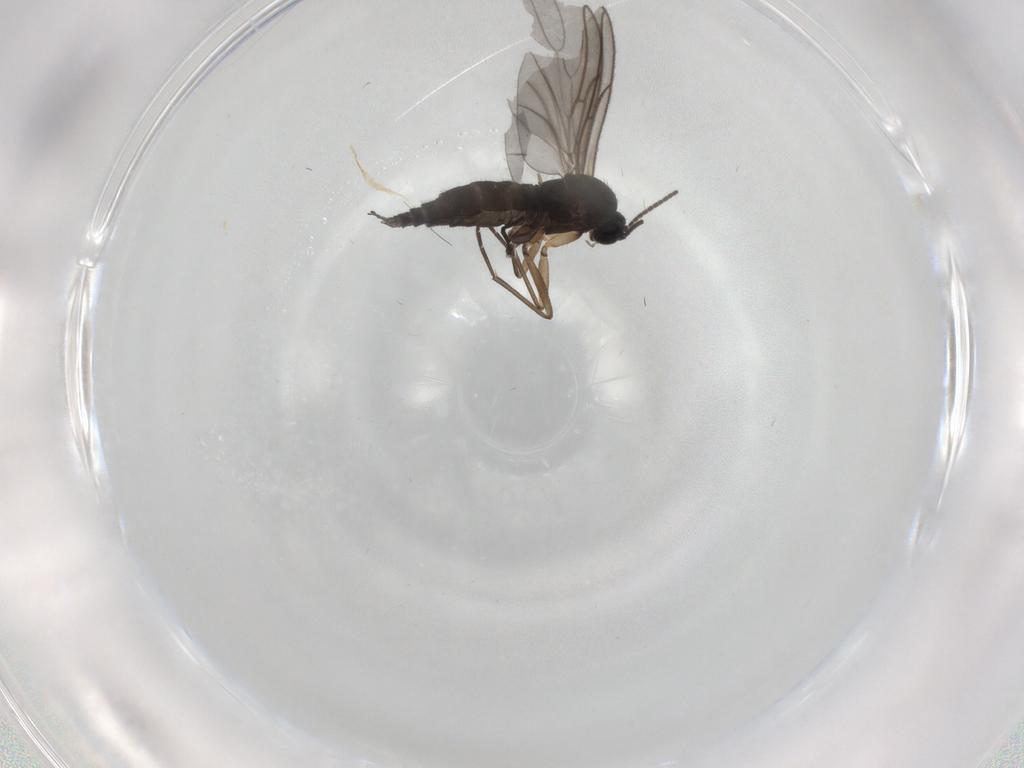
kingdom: Animalia
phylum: Arthropoda
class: Insecta
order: Diptera
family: Sciaridae
